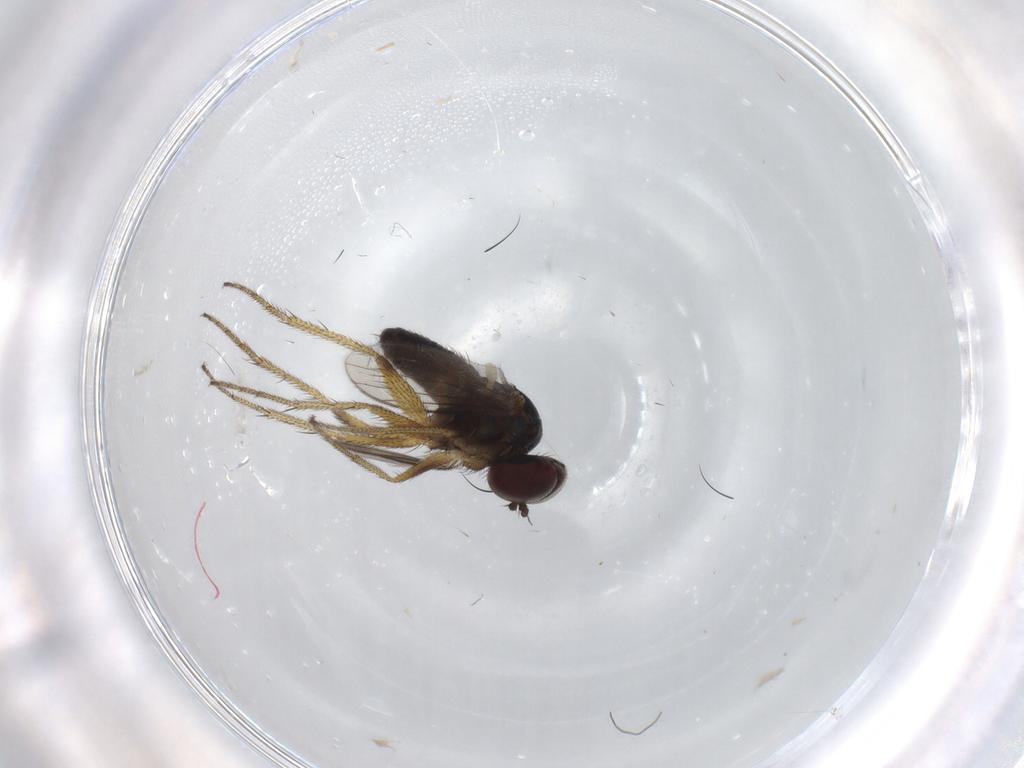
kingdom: Animalia
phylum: Arthropoda
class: Insecta
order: Diptera
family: Dolichopodidae
